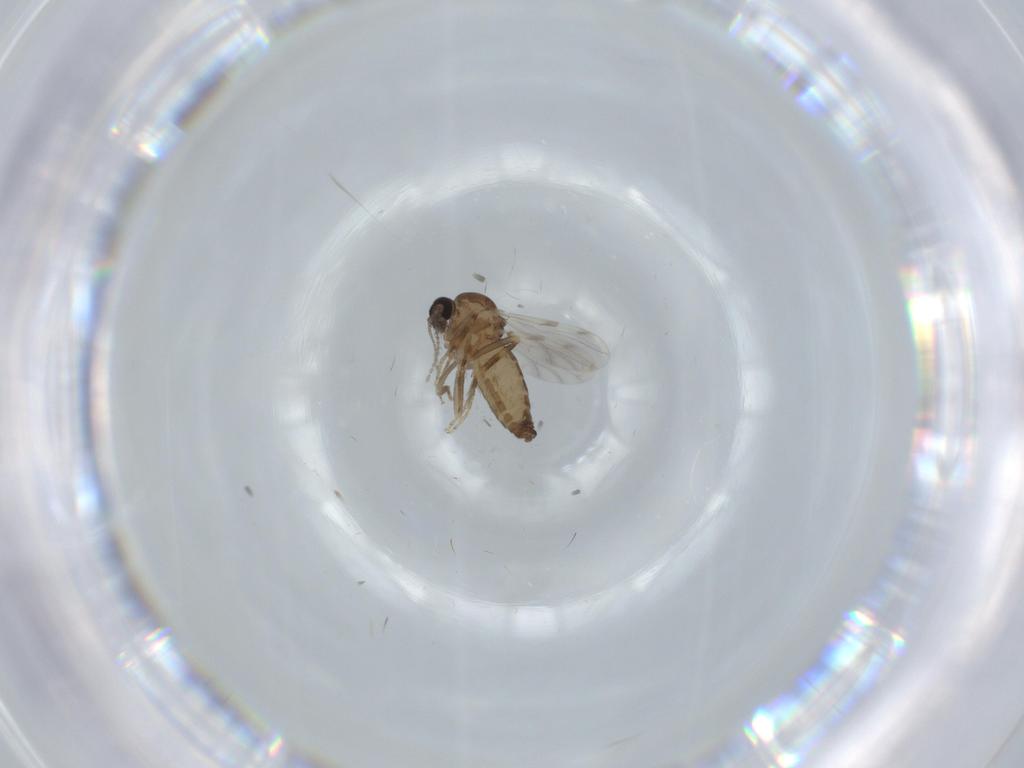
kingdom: Animalia
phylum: Arthropoda
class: Insecta
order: Diptera
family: Ceratopogonidae
